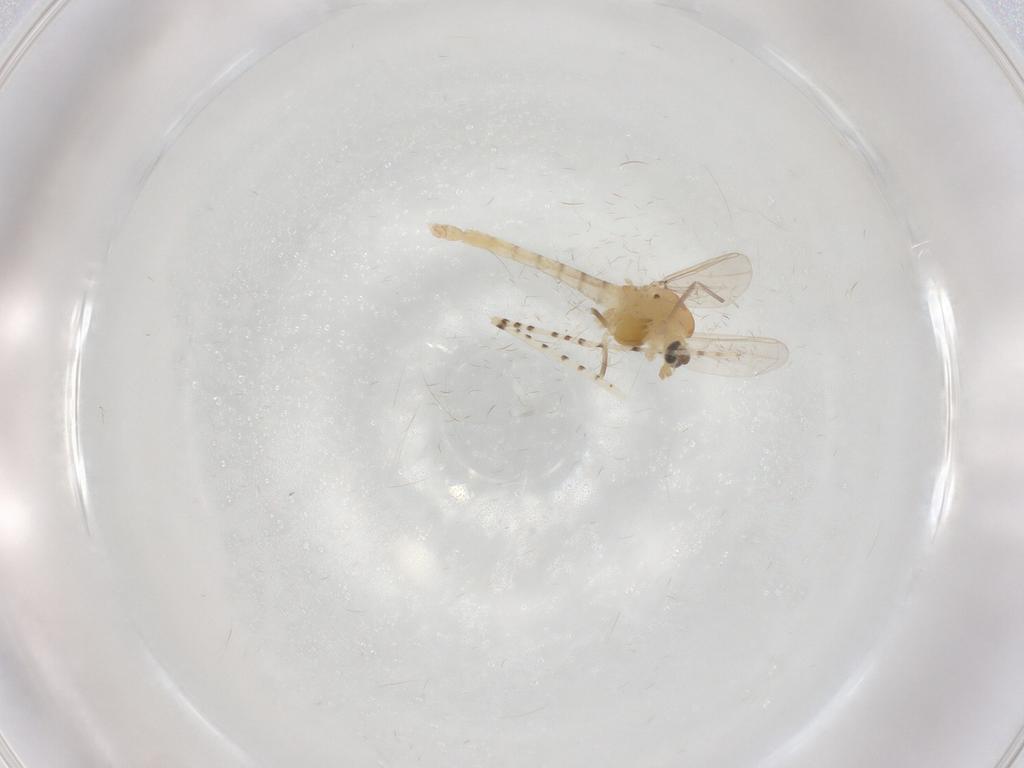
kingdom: Animalia
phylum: Arthropoda
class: Insecta
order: Diptera
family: Chaoboridae
